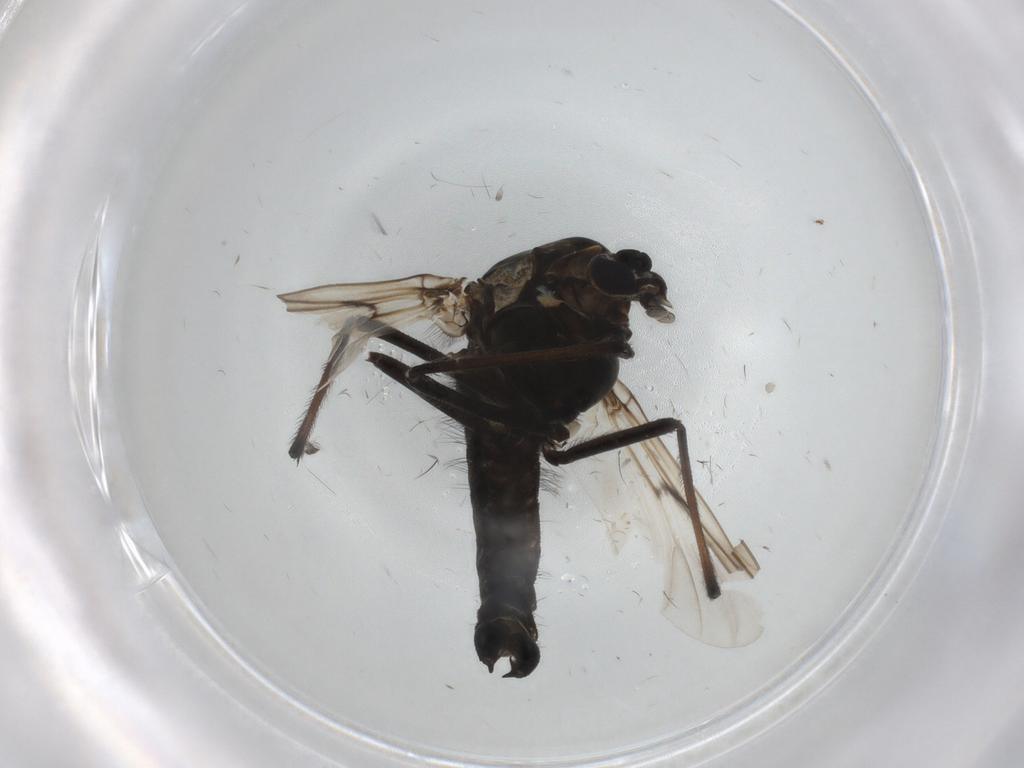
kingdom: Animalia
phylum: Arthropoda
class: Insecta
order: Diptera
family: Chironomidae
